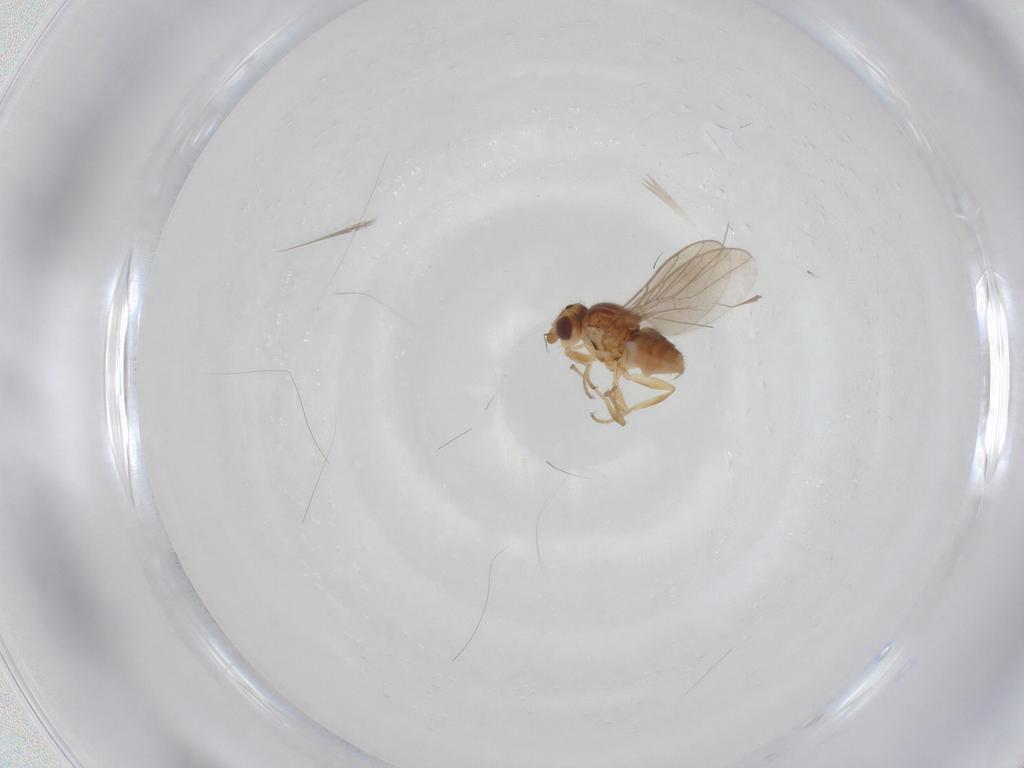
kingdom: Animalia
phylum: Arthropoda
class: Insecta
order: Diptera
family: Chloropidae
